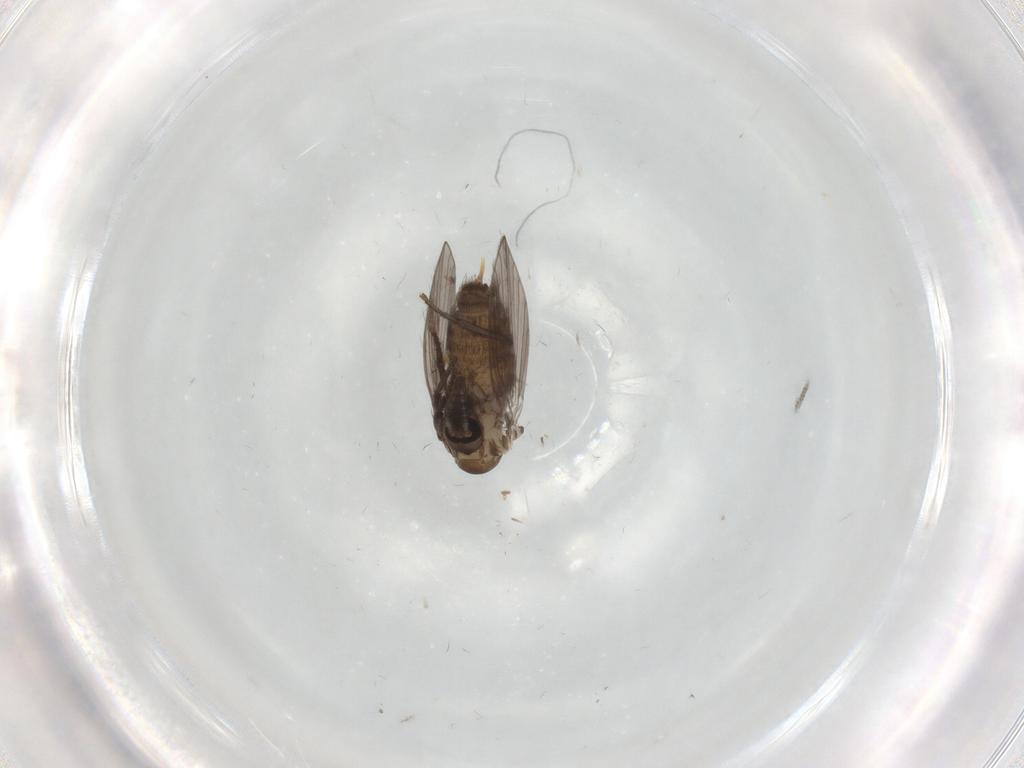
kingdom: Animalia
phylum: Arthropoda
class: Insecta
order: Diptera
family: Psychodidae
